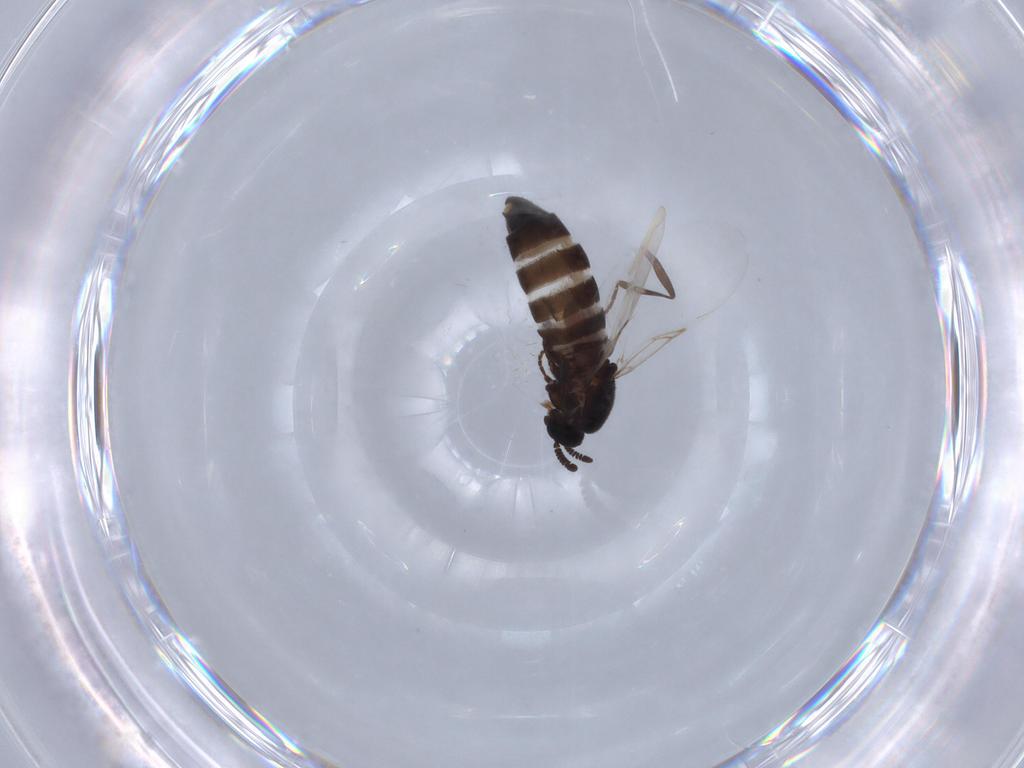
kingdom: Animalia
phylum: Arthropoda
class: Insecta
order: Diptera
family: Scatopsidae
